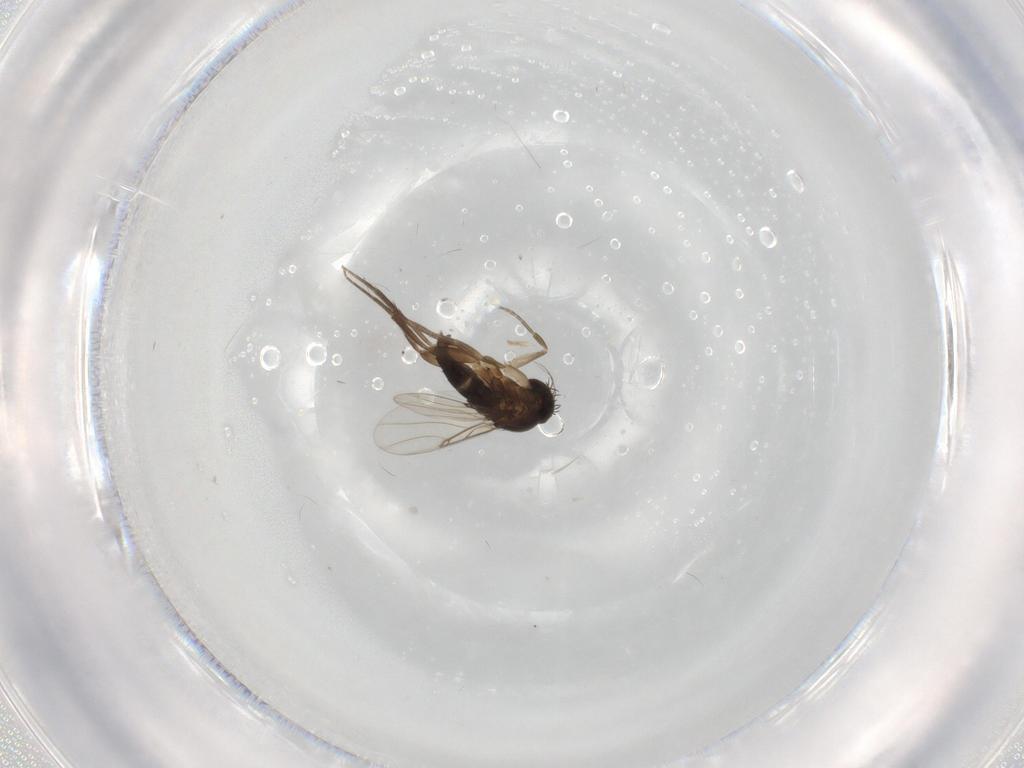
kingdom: Animalia
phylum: Arthropoda
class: Insecta
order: Diptera
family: Phoridae
